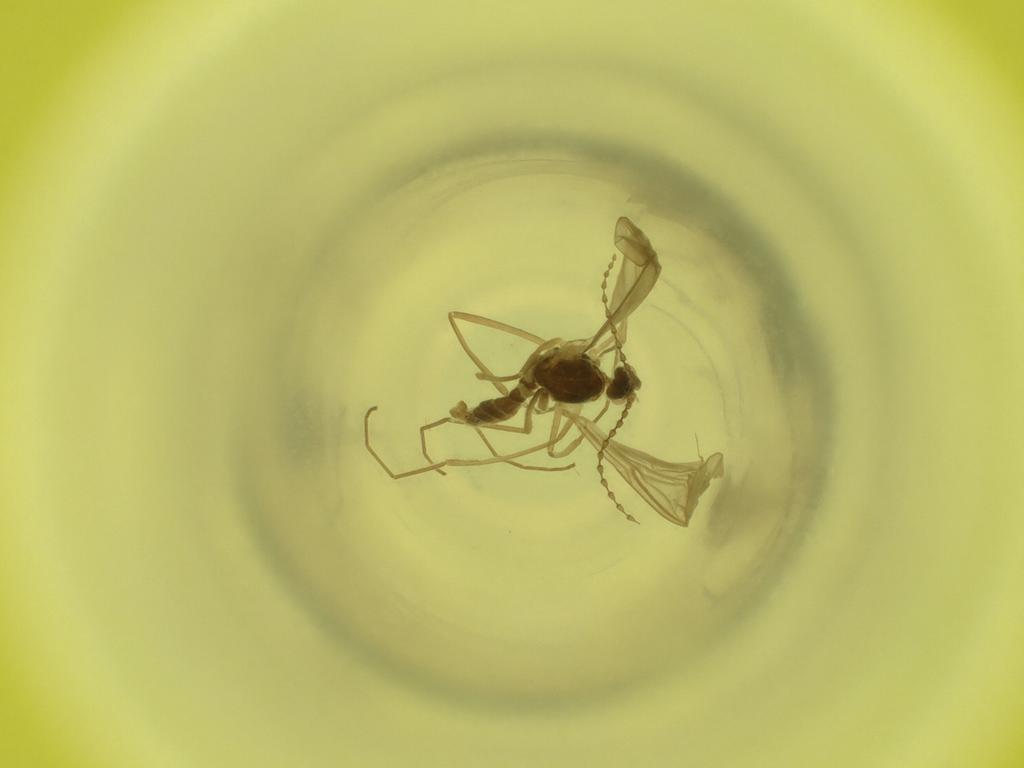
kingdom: Animalia
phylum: Arthropoda
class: Insecta
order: Diptera
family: Cecidomyiidae
